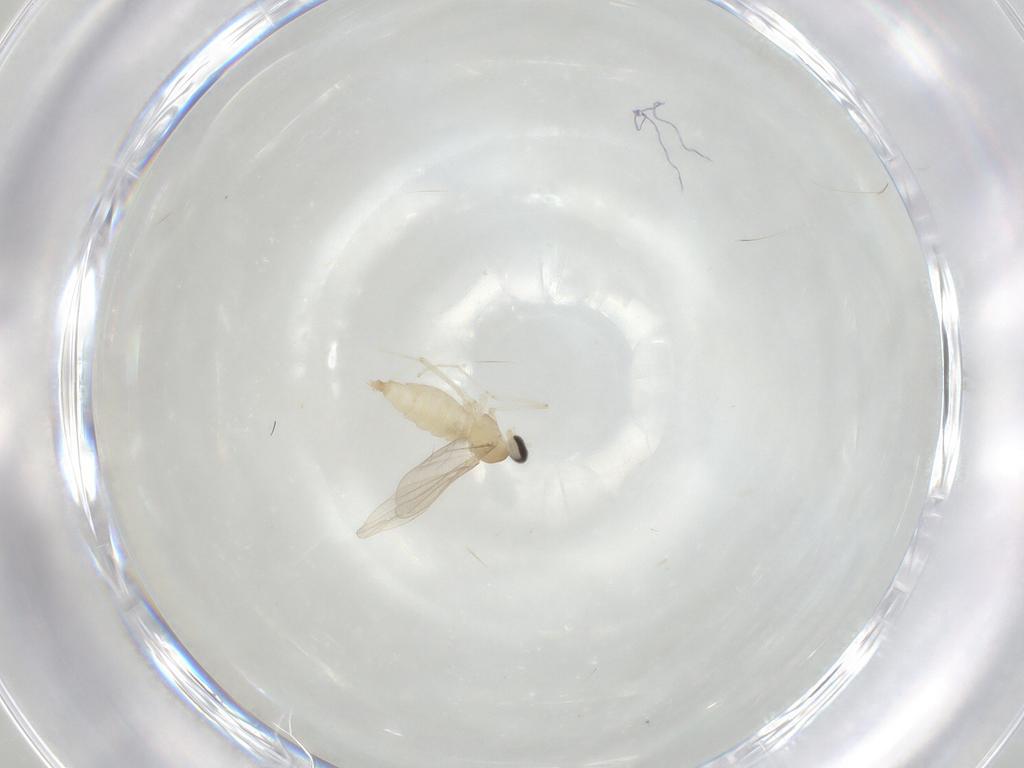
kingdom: Animalia
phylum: Arthropoda
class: Insecta
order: Diptera
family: Cecidomyiidae
